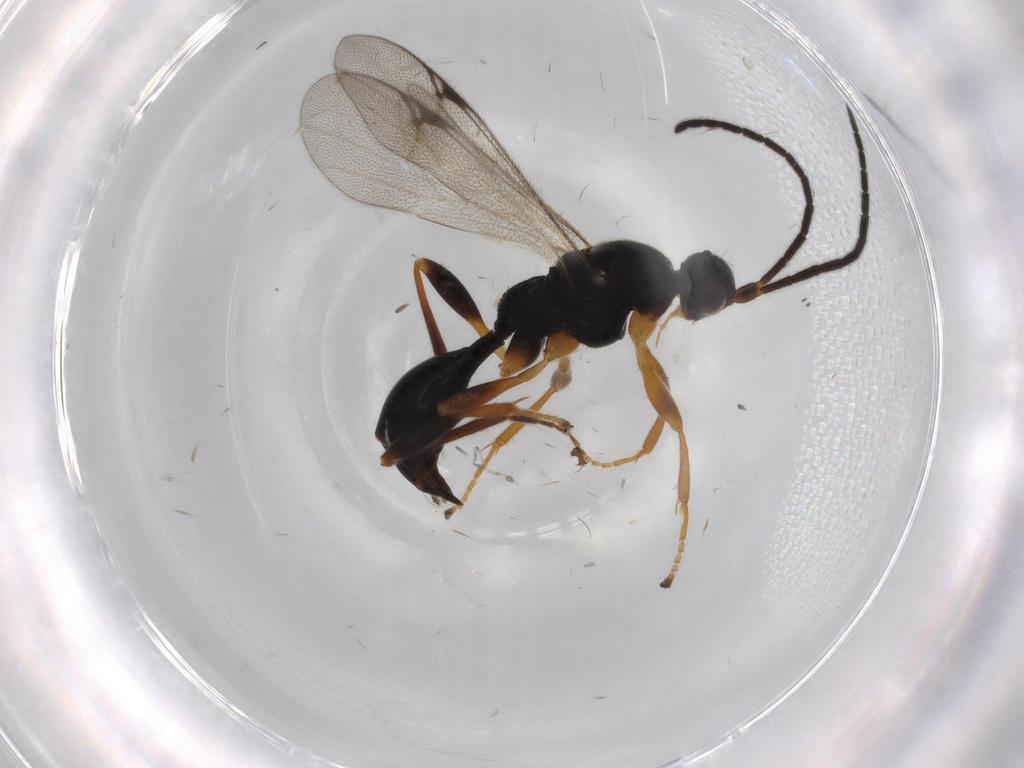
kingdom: Animalia
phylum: Arthropoda
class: Insecta
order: Hymenoptera
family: Proctotrupidae
